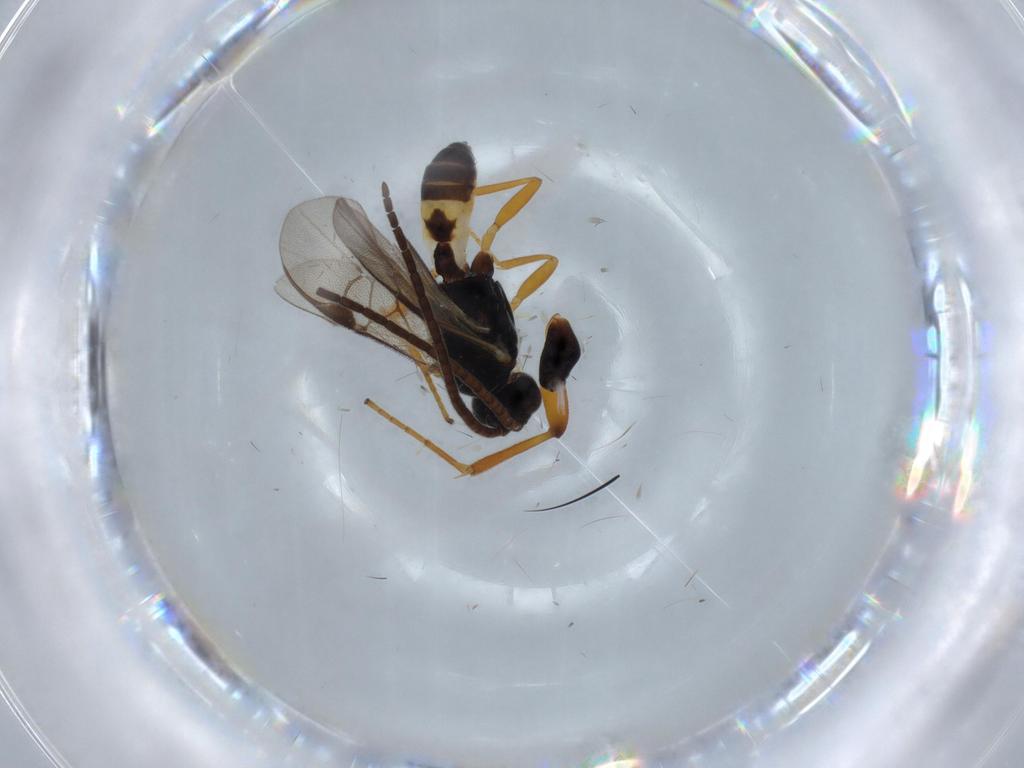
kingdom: Animalia
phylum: Arthropoda
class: Insecta
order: Hymenoptera
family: Braconidae
